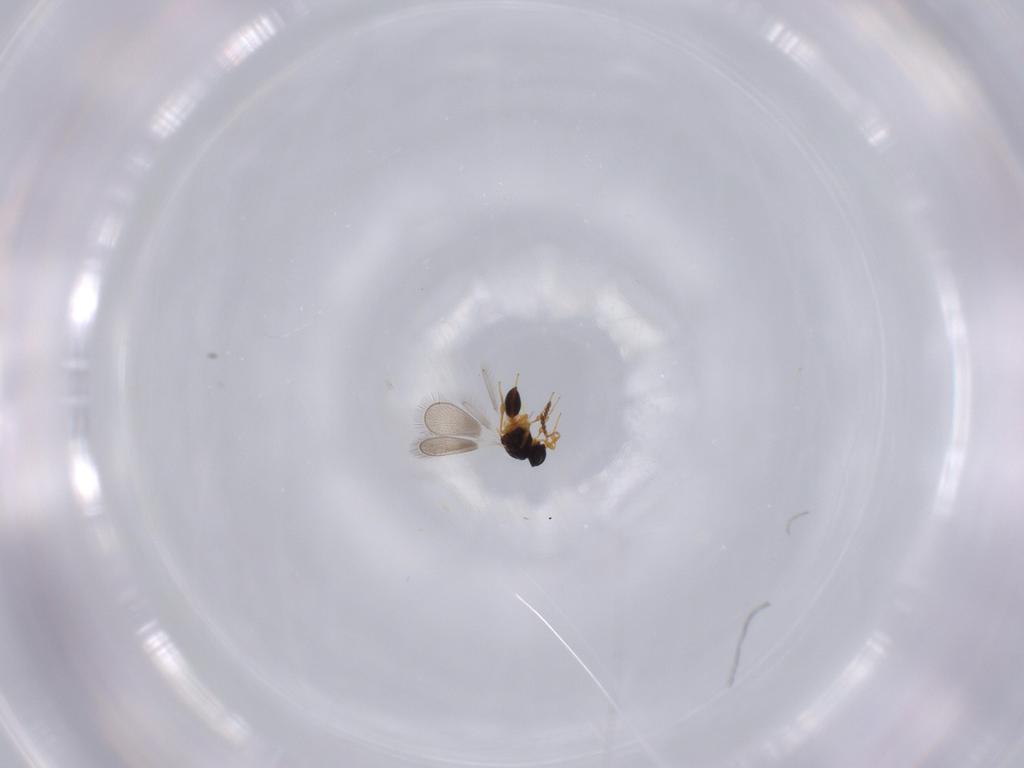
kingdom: Animalia
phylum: Arthropoda
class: Insecta
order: Hymenoptera
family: Platygastridae
